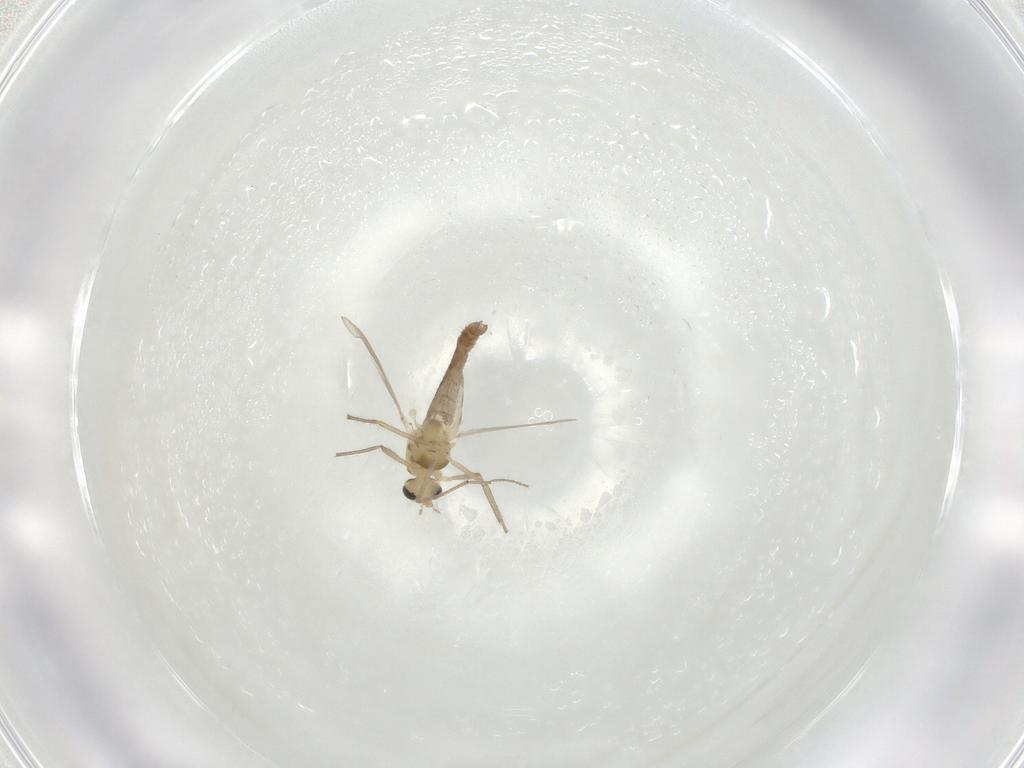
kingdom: Animalia
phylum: Arthropoda
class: Insecta
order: Diptera
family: Chironomidae
